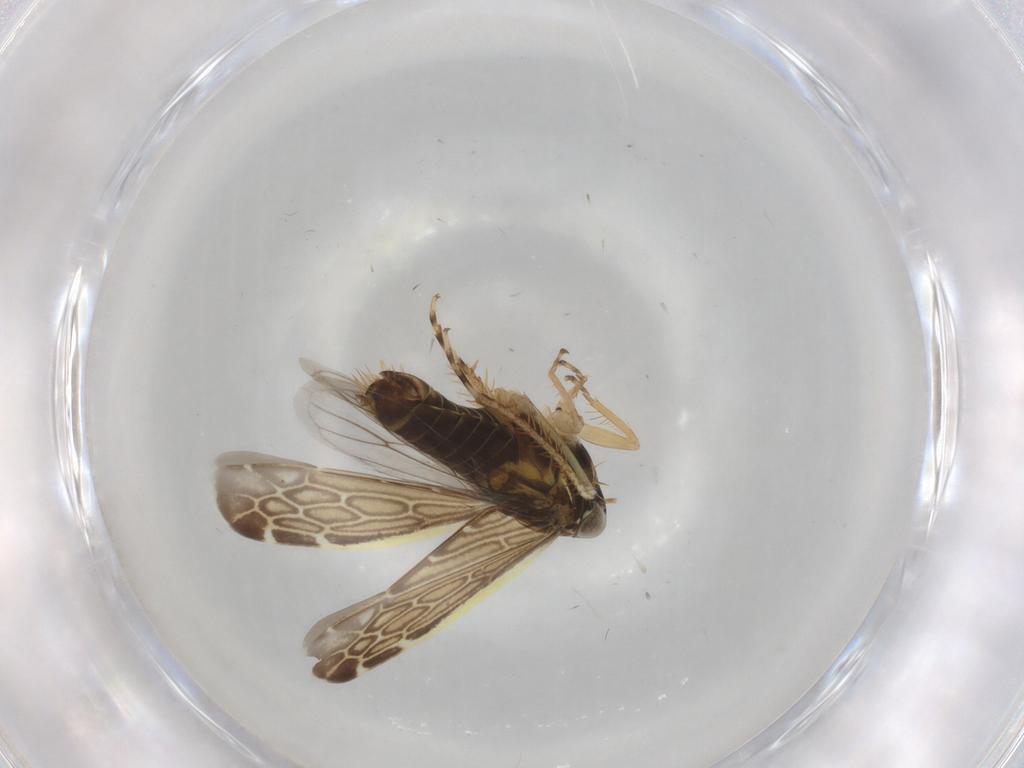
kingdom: Animalia
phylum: Arthropoda
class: Insecta
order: Hemiptera
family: Cicadellidae
